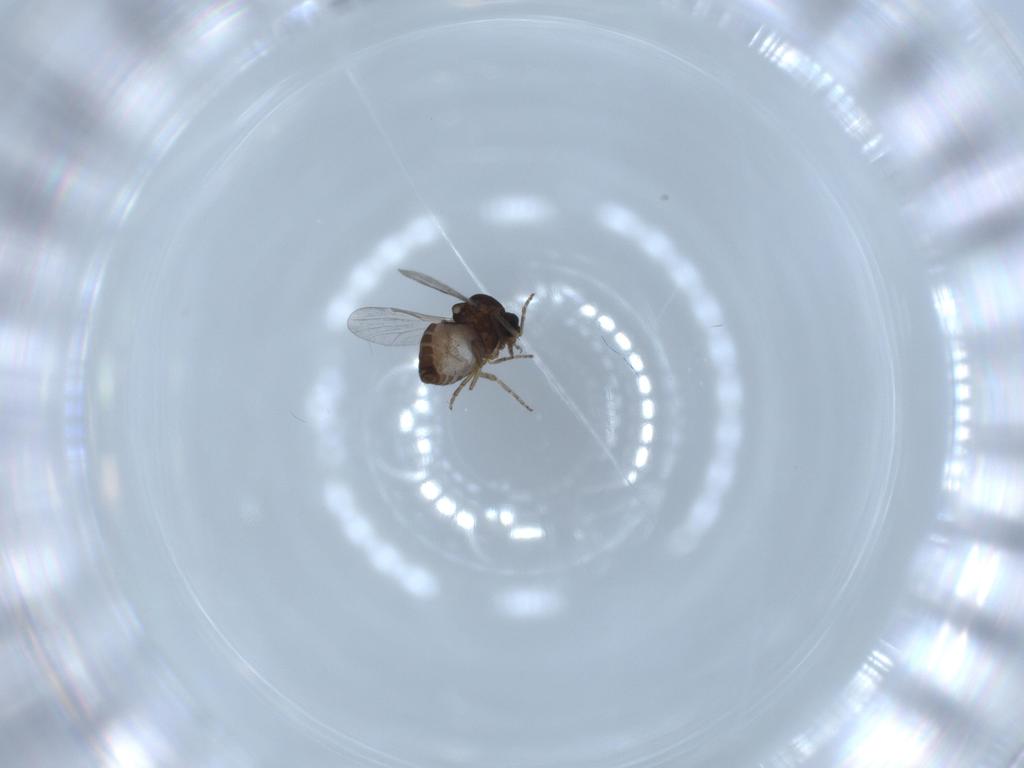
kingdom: Animalia
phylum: Arthropoda
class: Insecta
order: Diptera
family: Ceratopogonidae
